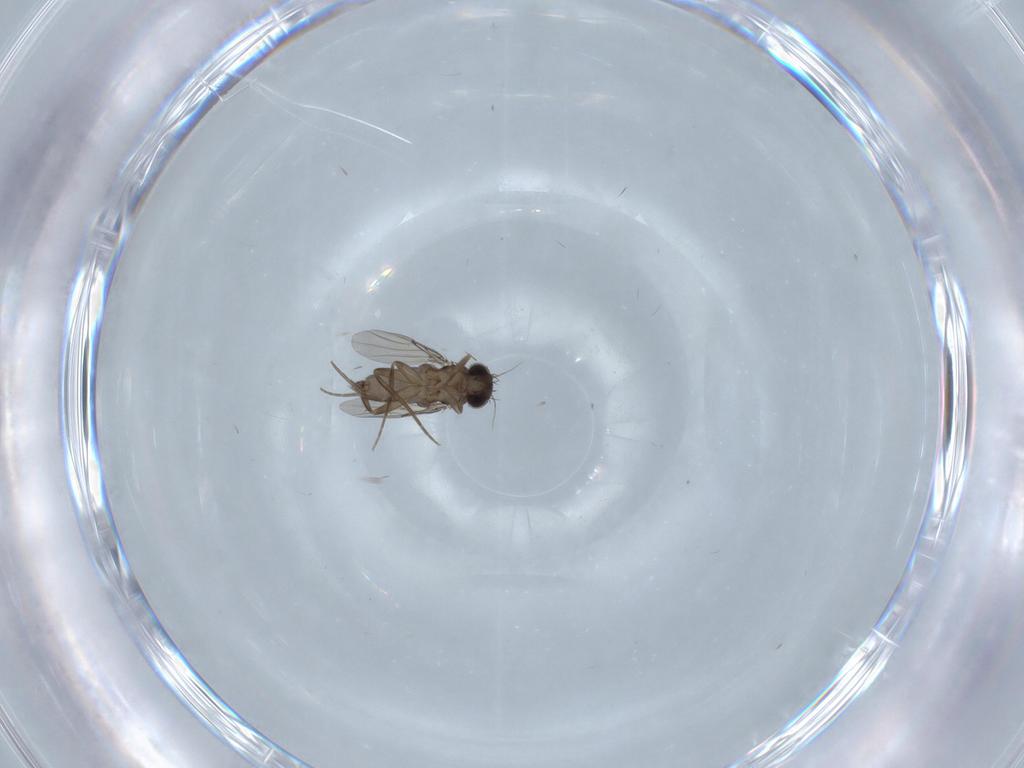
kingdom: Animalia
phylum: Arthropoda
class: Insecta
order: Diptera
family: Phoridae
